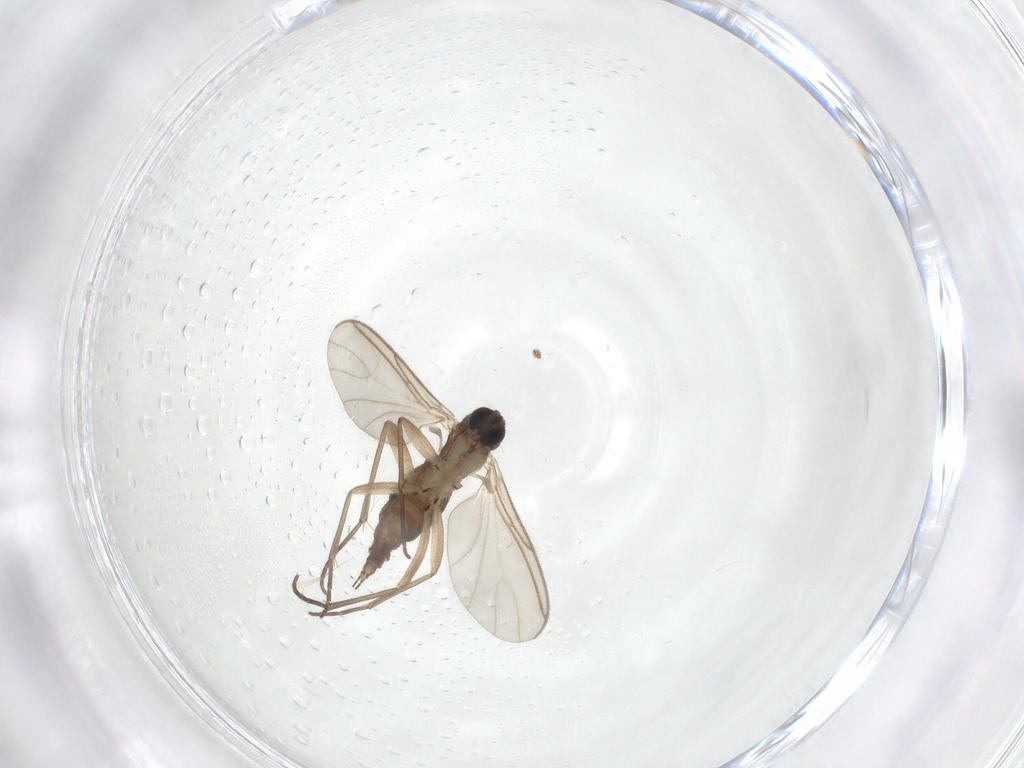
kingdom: Animalia
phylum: Arthropoda
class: Insecta
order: Diptera
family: Sciaridae
